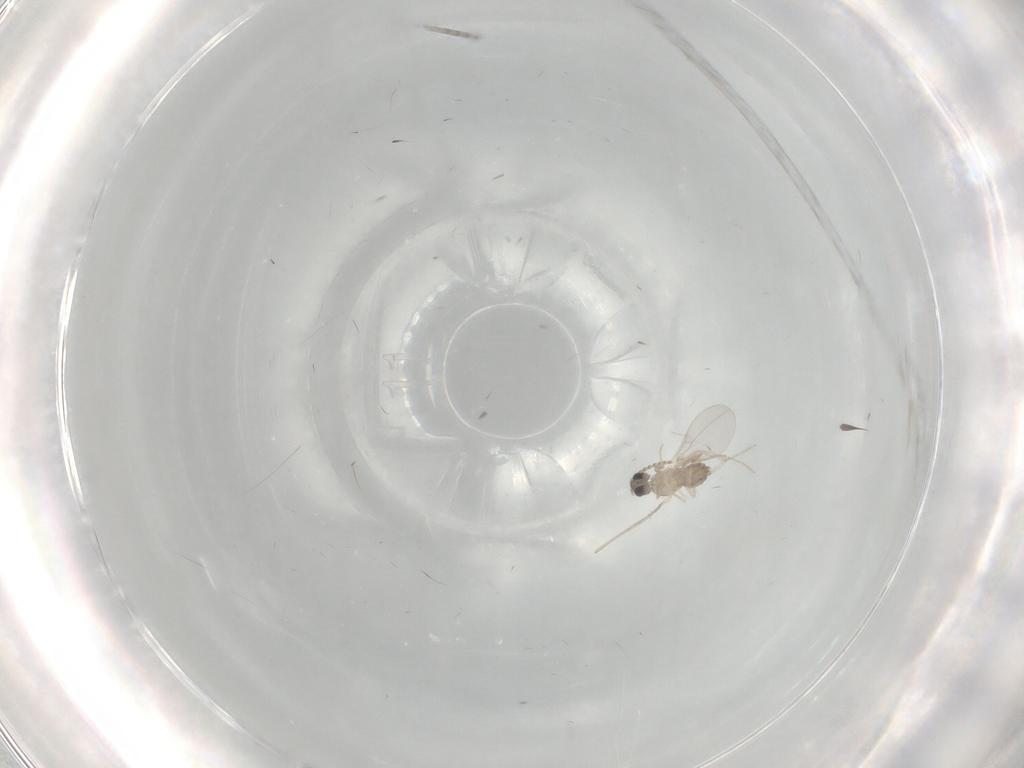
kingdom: Animalia
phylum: Arthropoda
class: Insecta
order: Diptera
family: Cecidomyiidae
